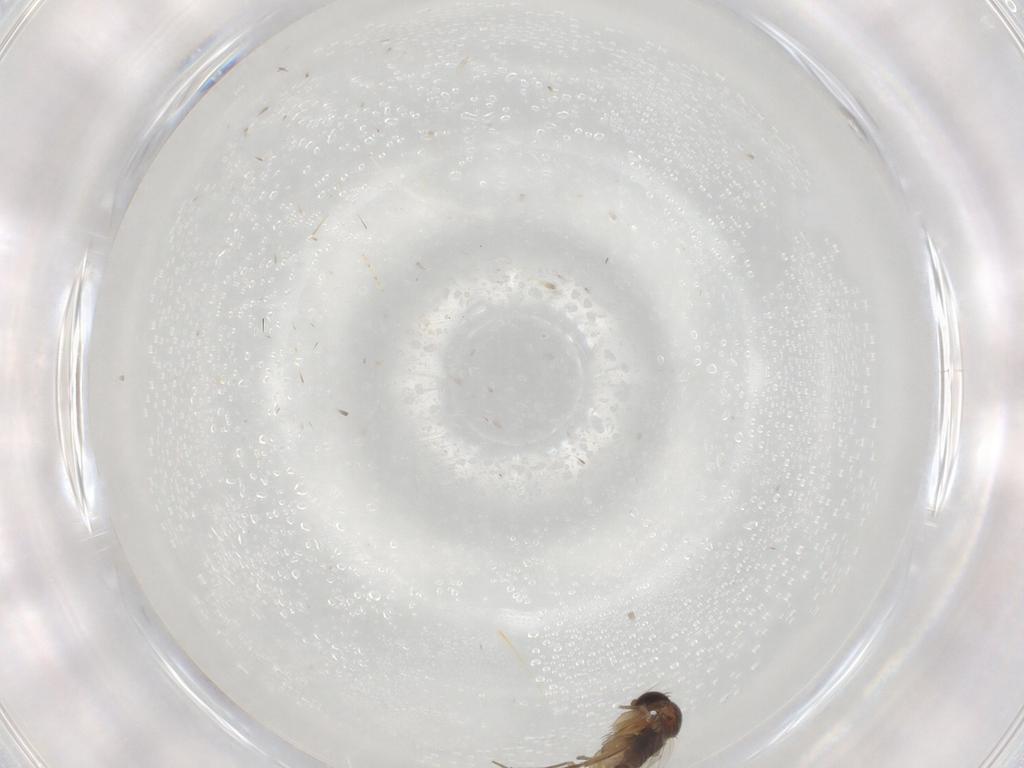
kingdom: Animalia
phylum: Arthropoda
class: Insecta
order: Diptera
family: Phoridae
